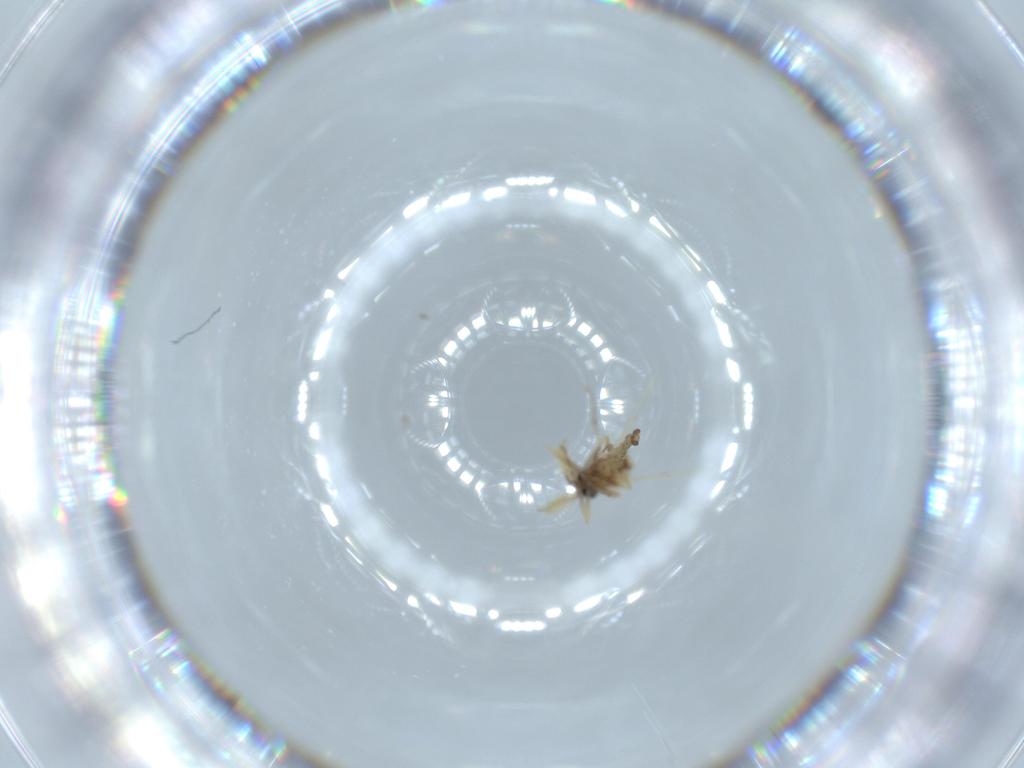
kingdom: Animalia
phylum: Arthropoda
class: Insecta
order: Diptera
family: Ceratopogonidae
